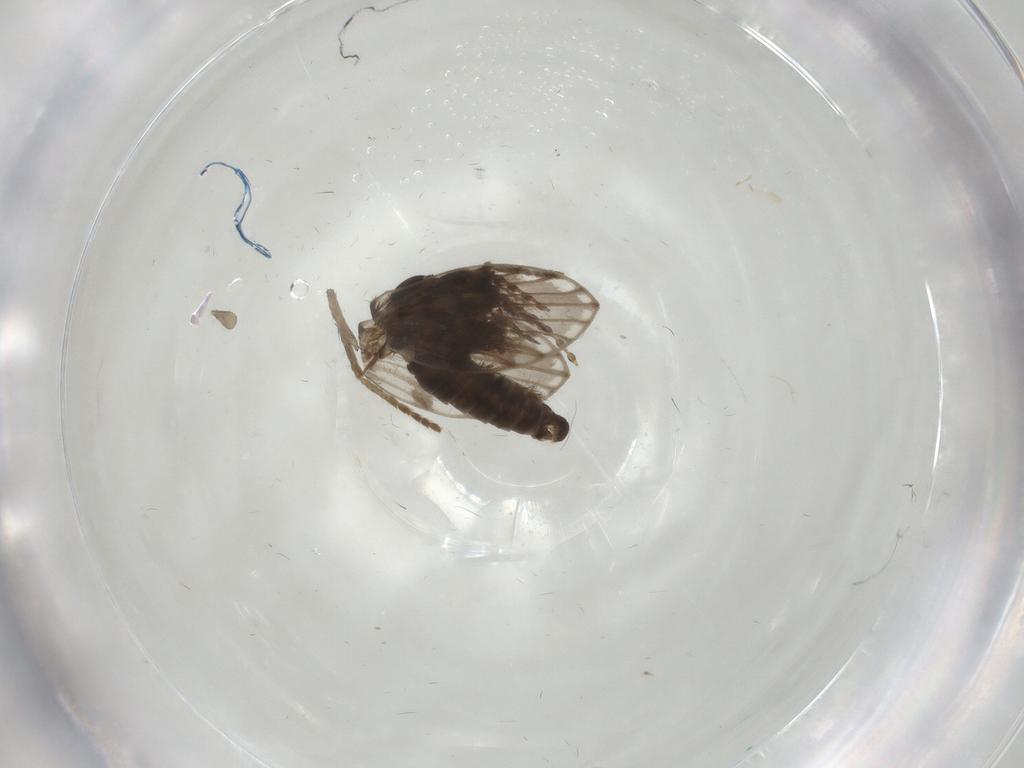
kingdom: Animalia
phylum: Arthropoda
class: Insecta
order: Diptera
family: Psychodidae
